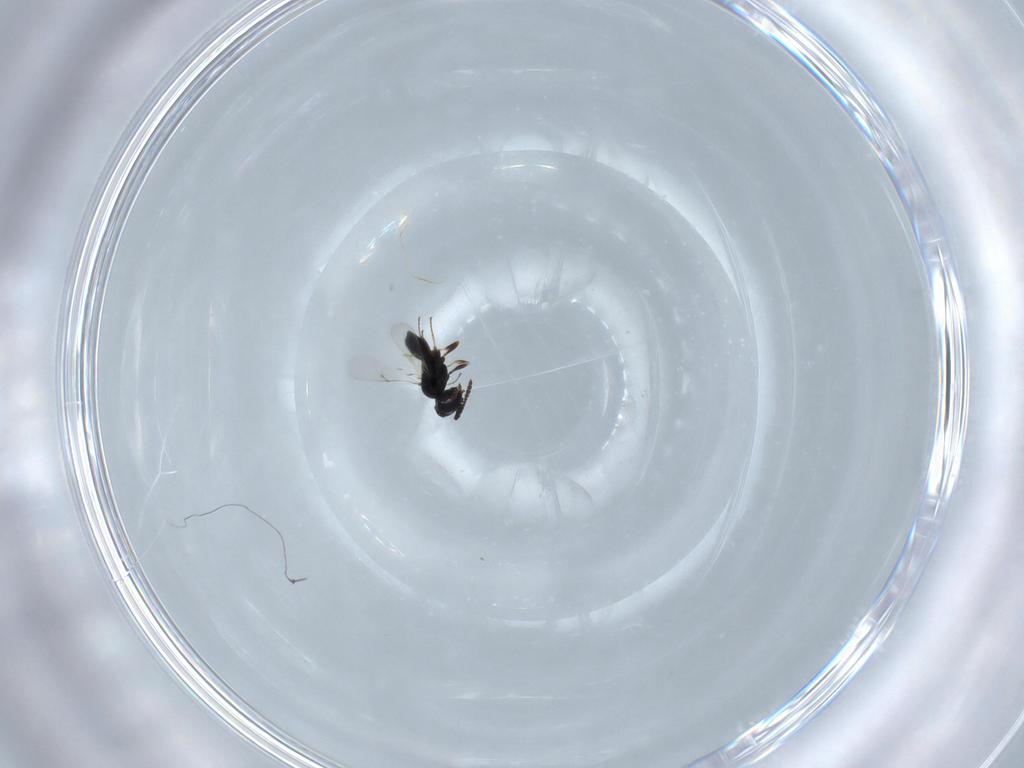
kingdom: Animalia
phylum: Arthropoda
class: Insecta
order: Hymenoptera
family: Scelionidae
